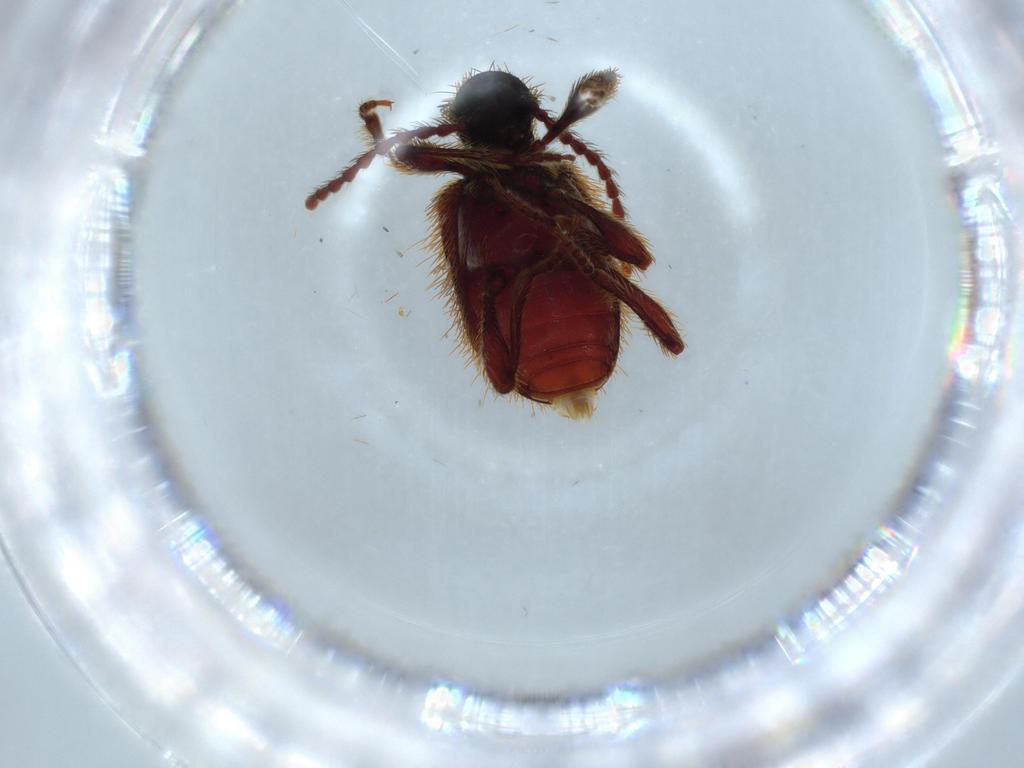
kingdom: Animalia
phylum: Arthropoda
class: Insecta
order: Coleoptera
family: Ptinidae
